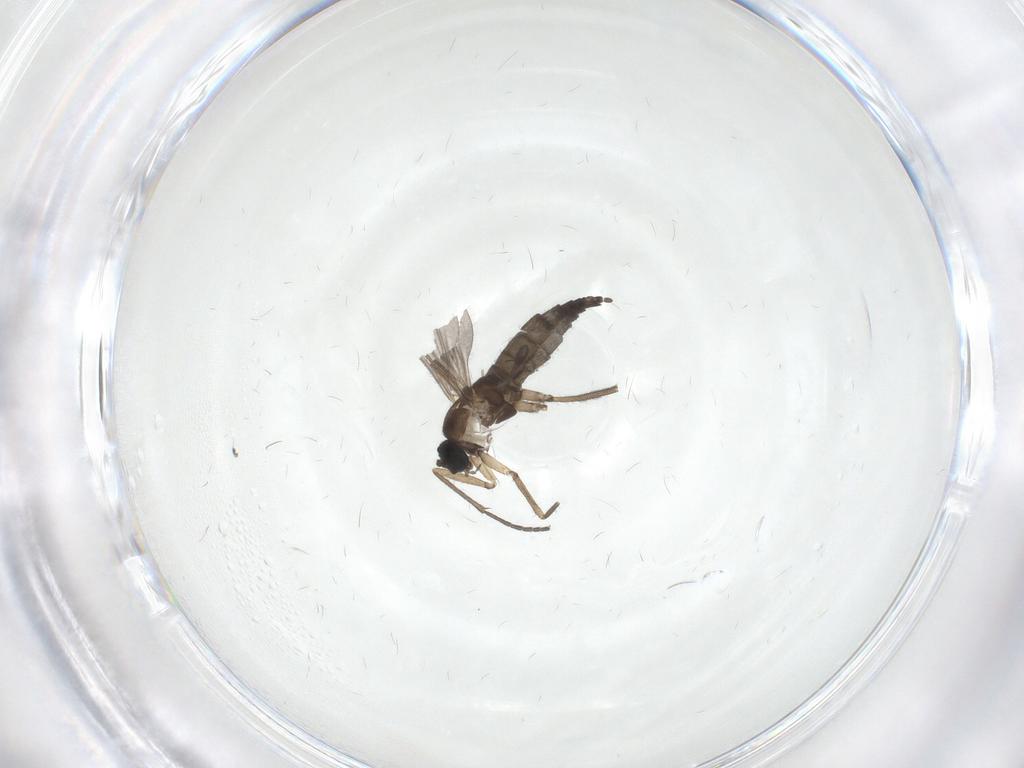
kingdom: Animalia
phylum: Arthropoda
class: Insecta
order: Diptera
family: Sciaridae
